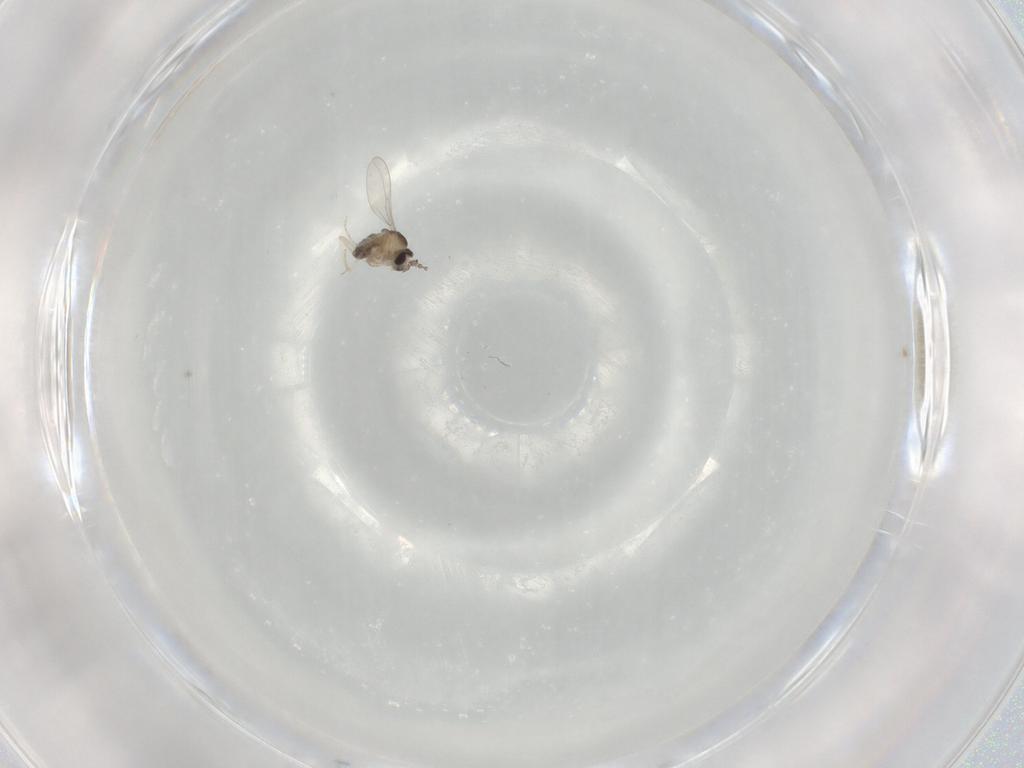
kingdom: Animalia
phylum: Arthropoda
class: Insecta
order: Diptera
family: Cecidomyiidae
